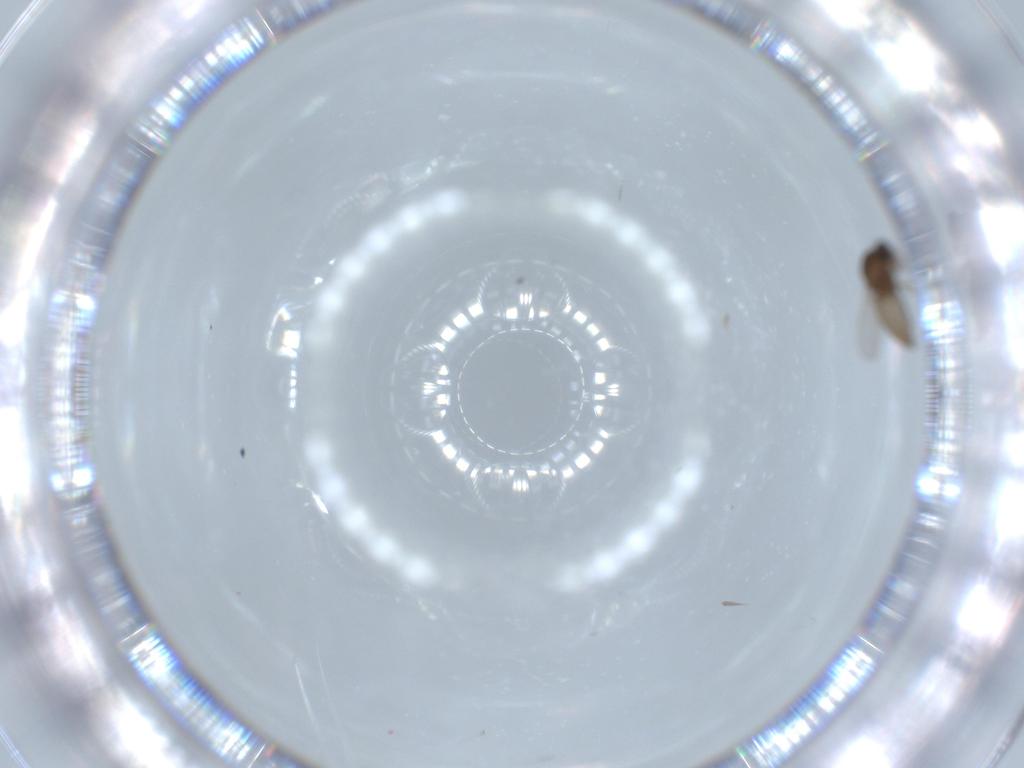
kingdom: Animalia
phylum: Arthropoda
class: Insecta
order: Diptera
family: Ceratopogonidae
